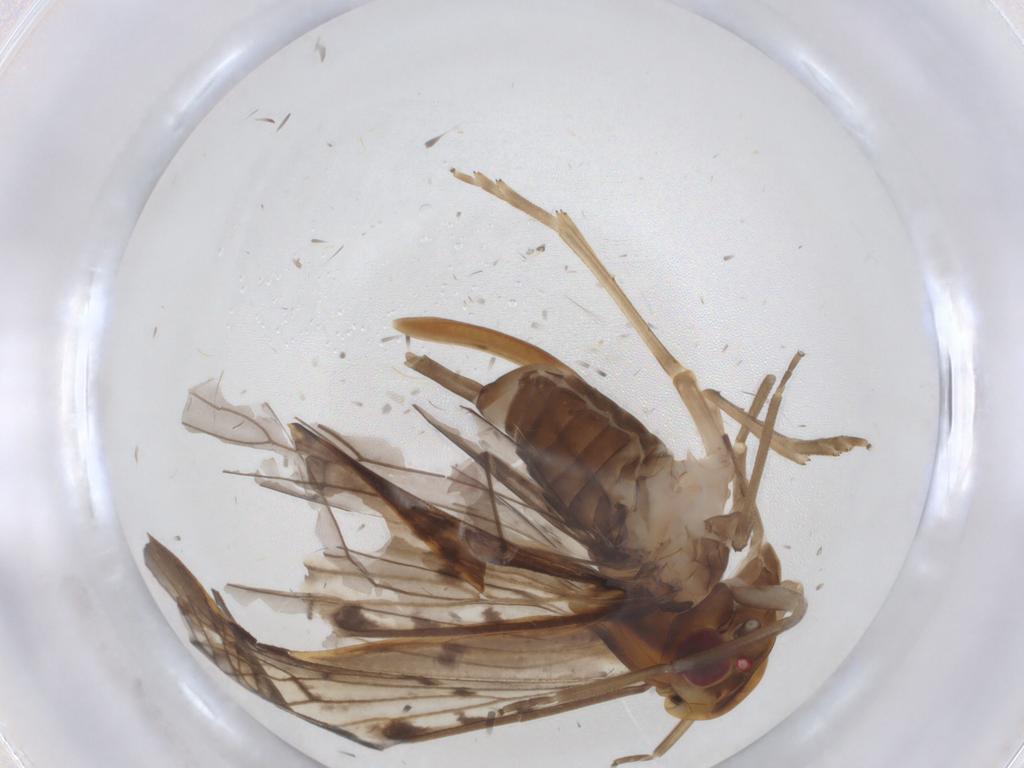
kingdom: Animalia
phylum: Arthropoda
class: Insecta
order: Hemiptera
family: Cixiidae
